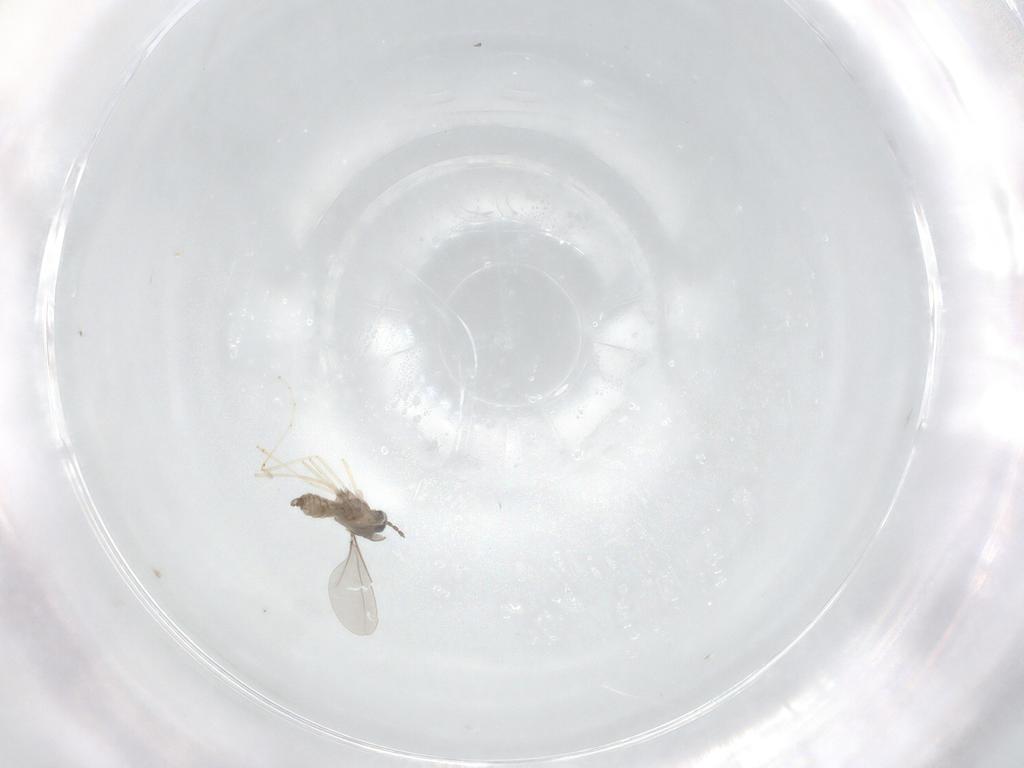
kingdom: Animalia
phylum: Arthropoda
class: Insecta
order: Diptera
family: Cecidomyiidae
